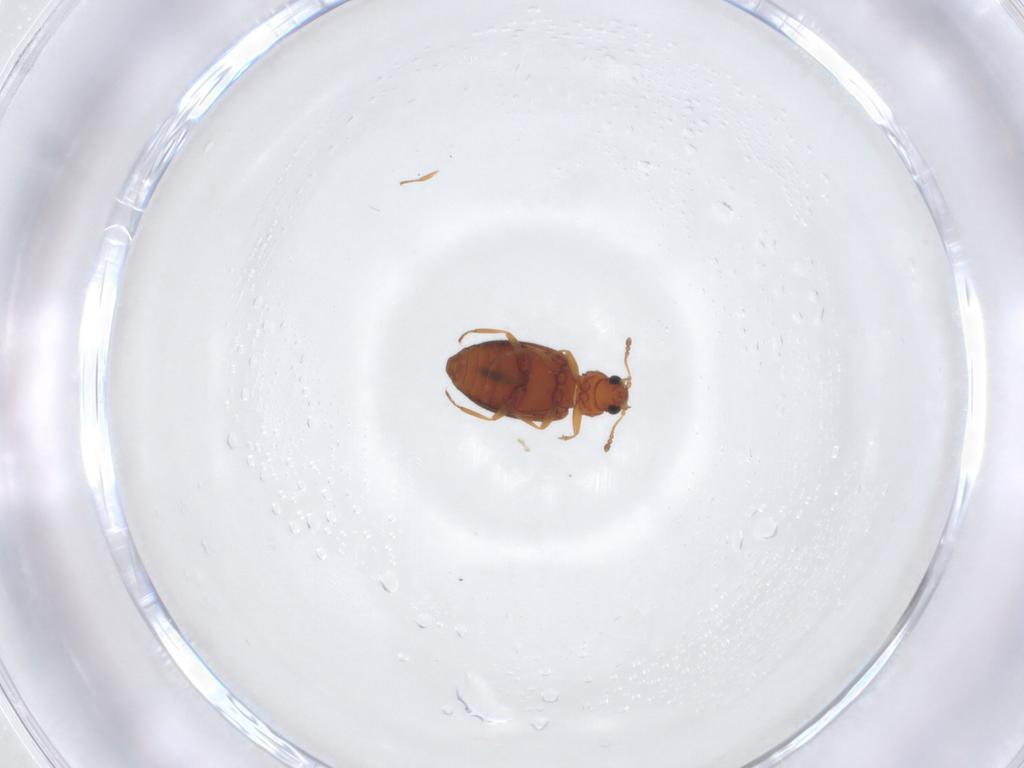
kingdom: Animalia
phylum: Arthropoda
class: Insecta
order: Coleoptera
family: Latridiidae
